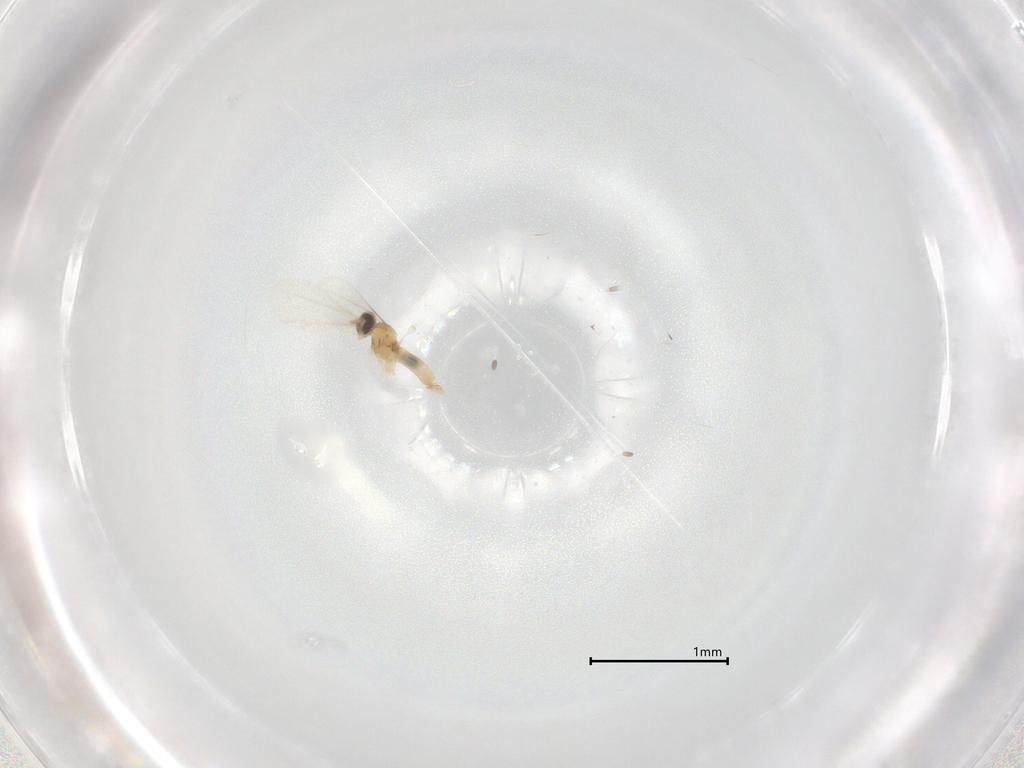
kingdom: Animalia
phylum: Arthropoda
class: Insecta
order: Diptera
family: Cecidomyiidae
